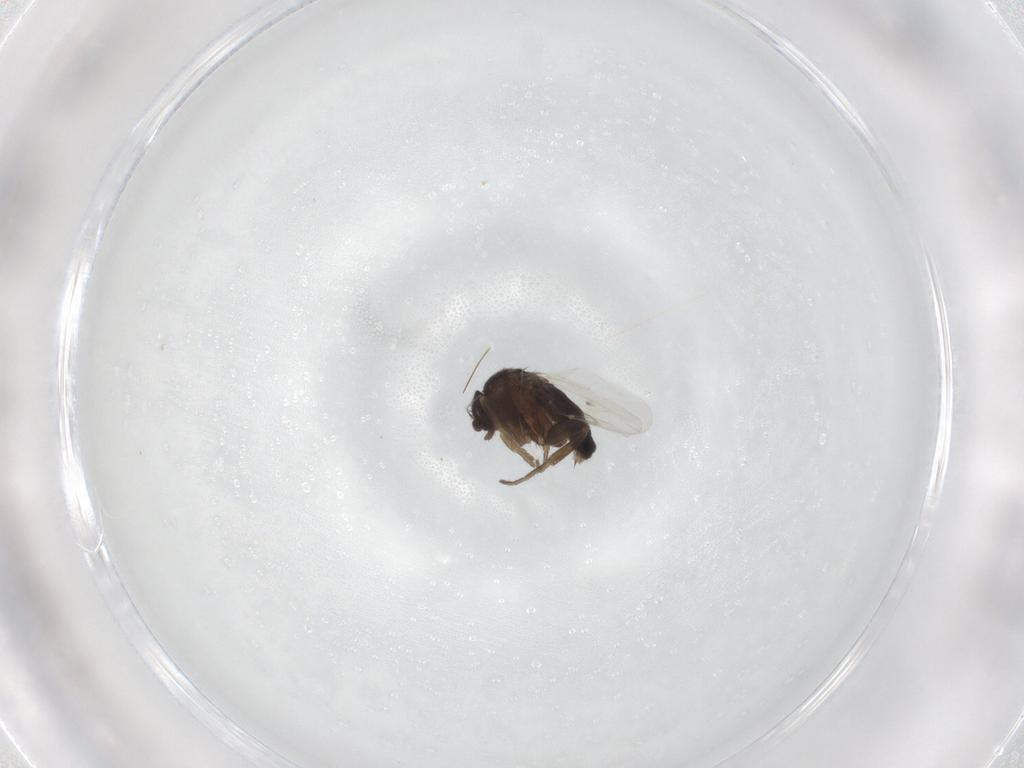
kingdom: Animalia
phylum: Arthropoda
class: Insecta
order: Diptera
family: Phoridae
